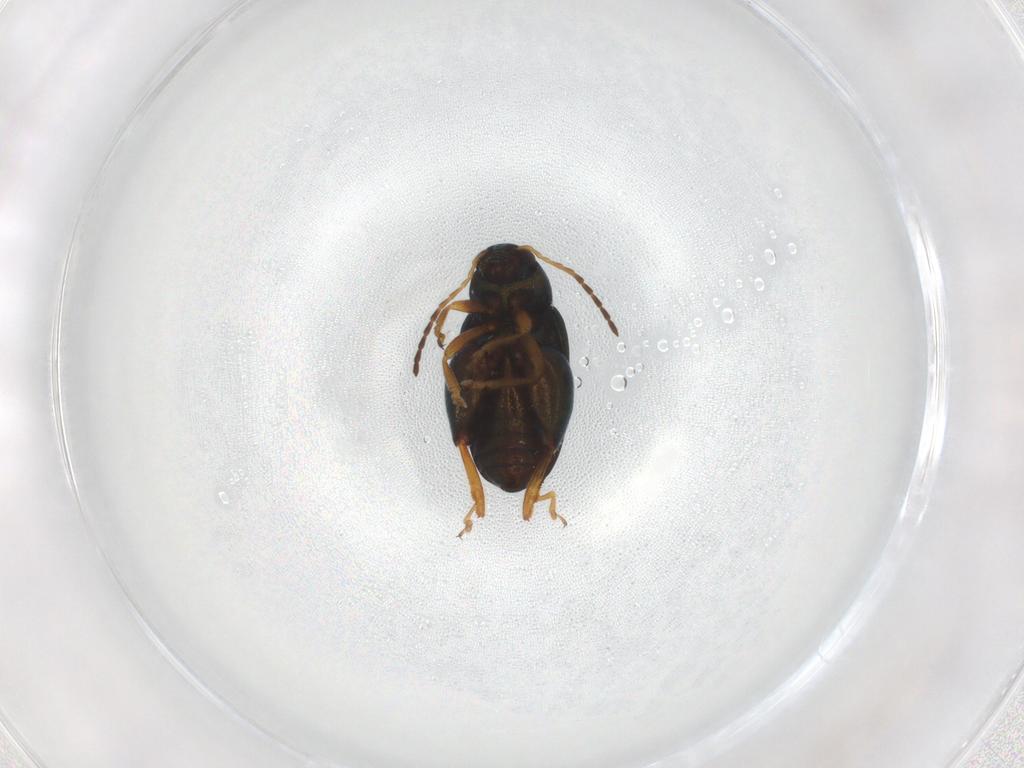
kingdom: Animalia
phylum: Arthropoda
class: Insecta
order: Coleoptera
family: Chrysomelidae
